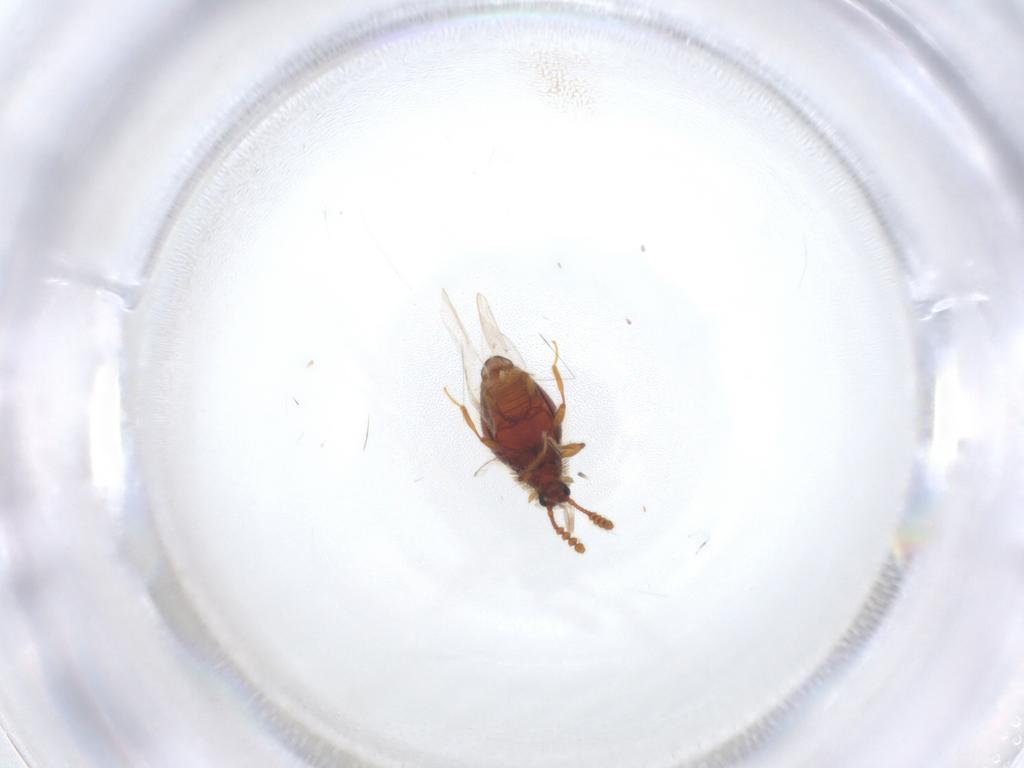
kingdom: Animalia
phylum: Arthropoda
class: Insecta
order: Coleoptera
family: Staphylinidae
